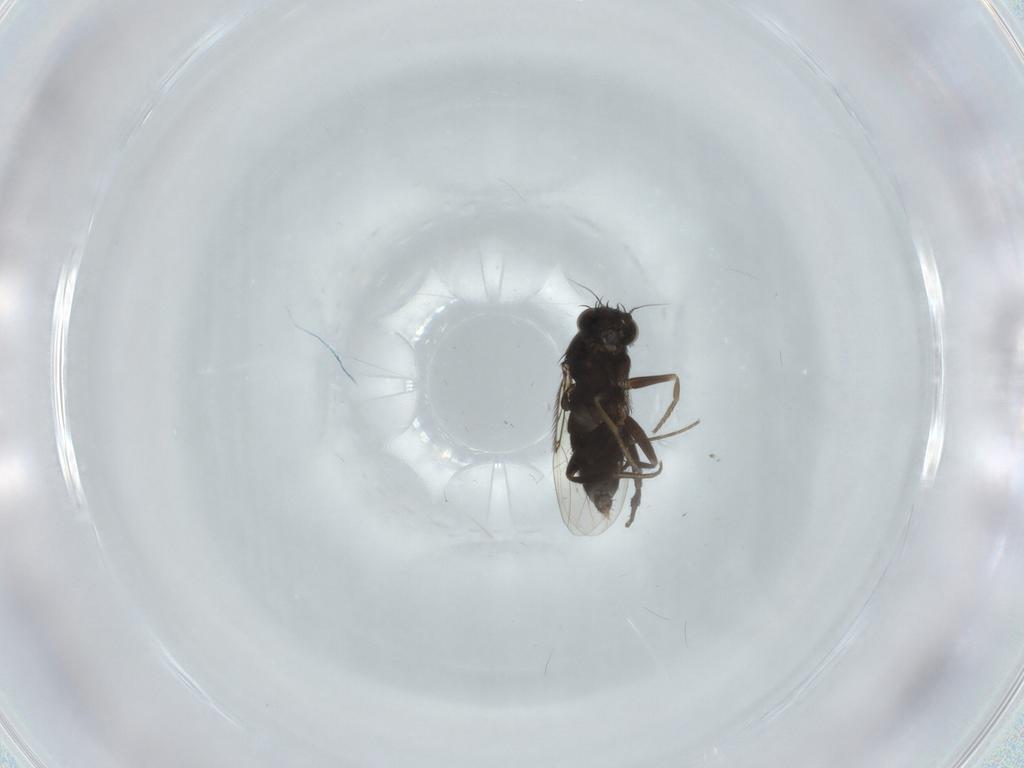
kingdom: Animalia
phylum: Arthropoda
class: Insecta
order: Diptera
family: Phoridae
